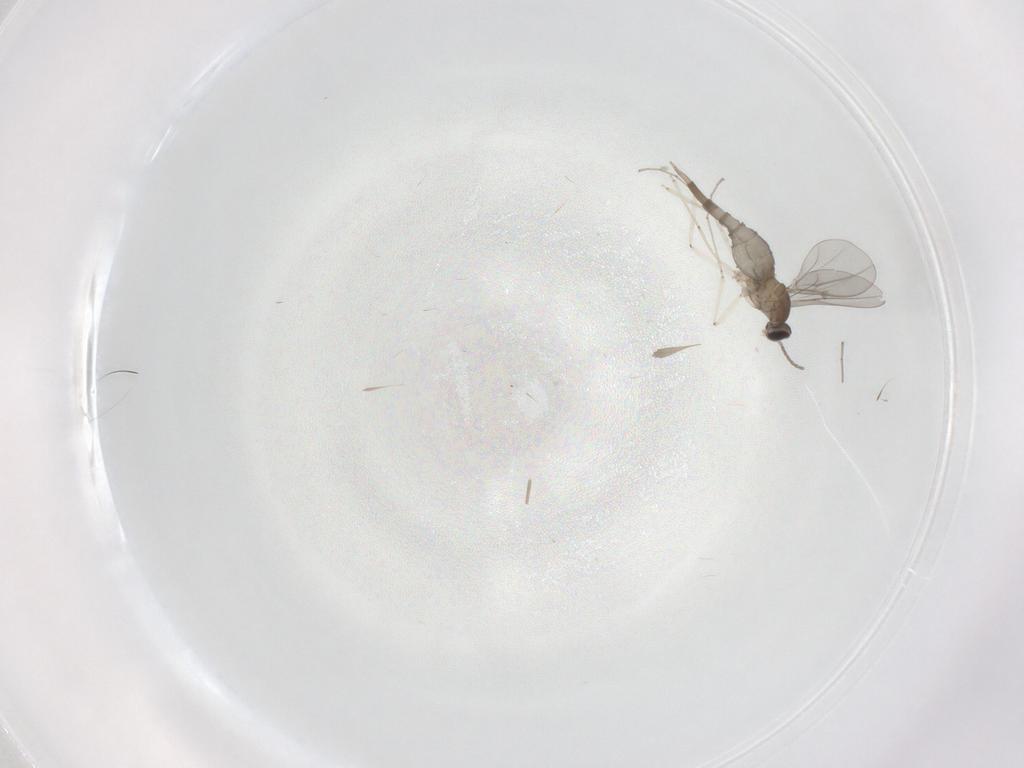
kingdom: Animalia
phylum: Arthropoda
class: Insecta
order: Diptera
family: Cecidomyiidae
